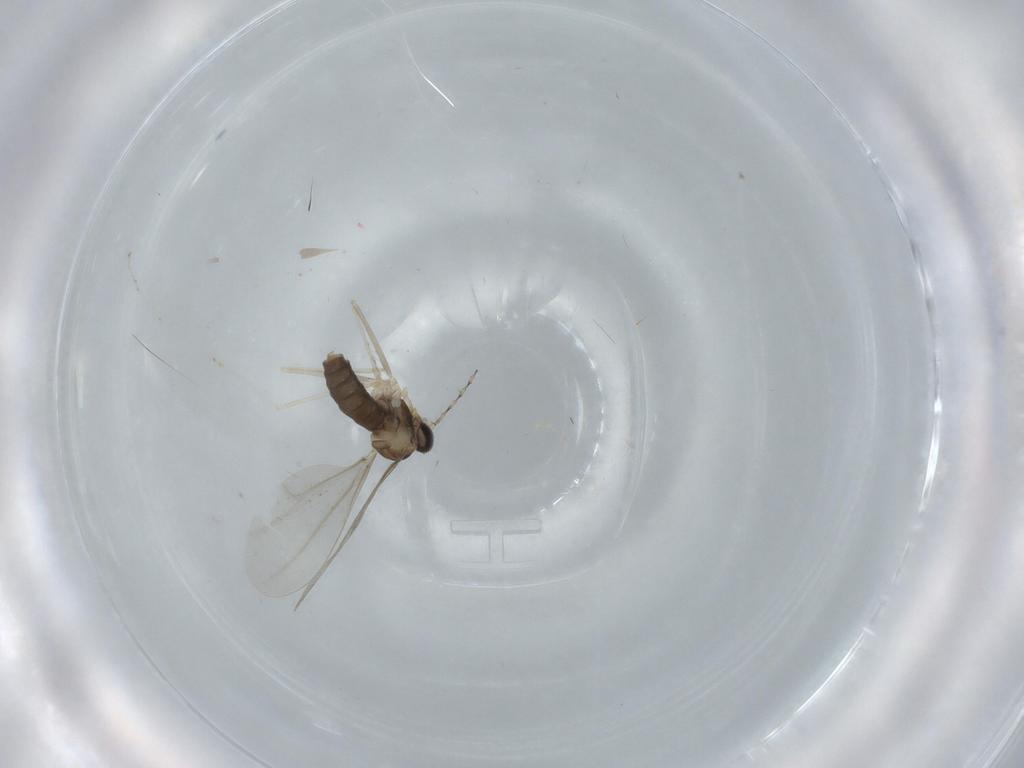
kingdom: Animalia
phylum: Arthropoda
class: Insecta
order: Diptera
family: Cecidomyiidae
